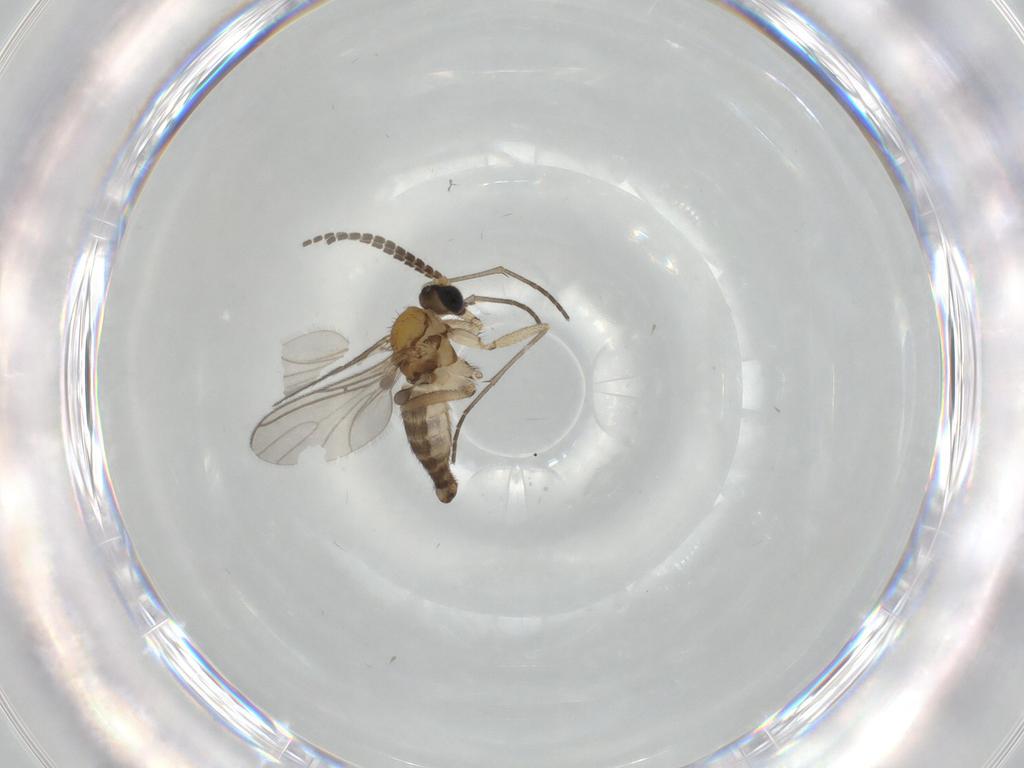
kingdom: Animalia
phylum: Arthropoda
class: Insecta
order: Diptera
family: Sciaridae
